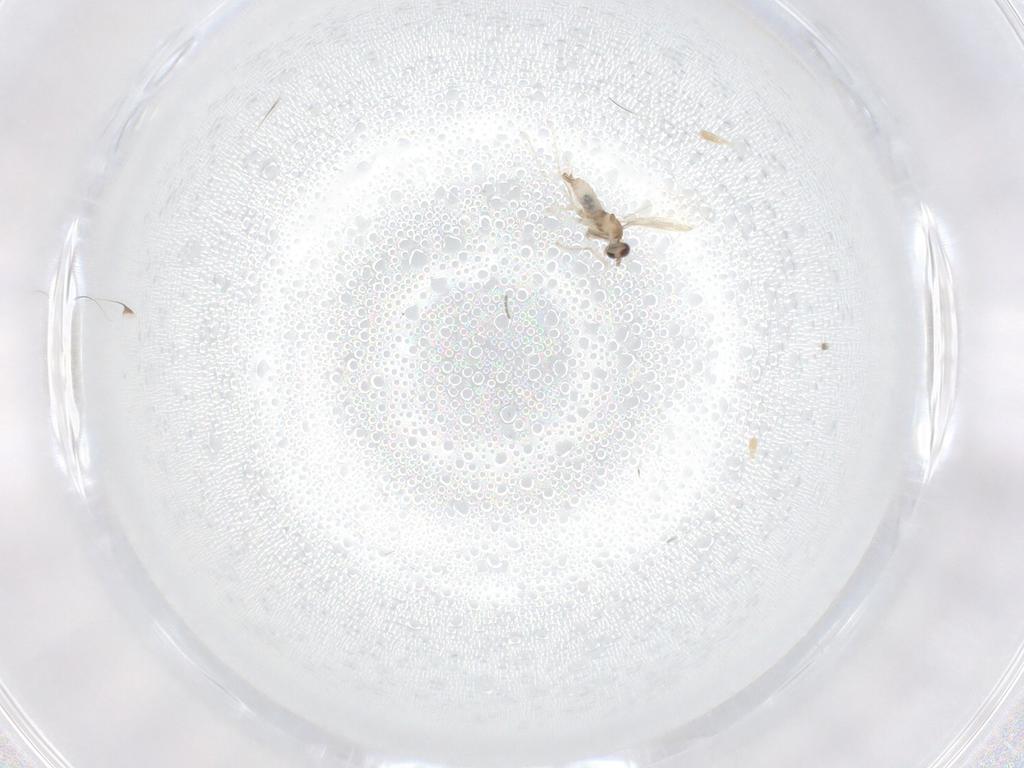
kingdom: Animalia
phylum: Arthropoda
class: Insecta
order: Diptera
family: Cecidomyiidae
